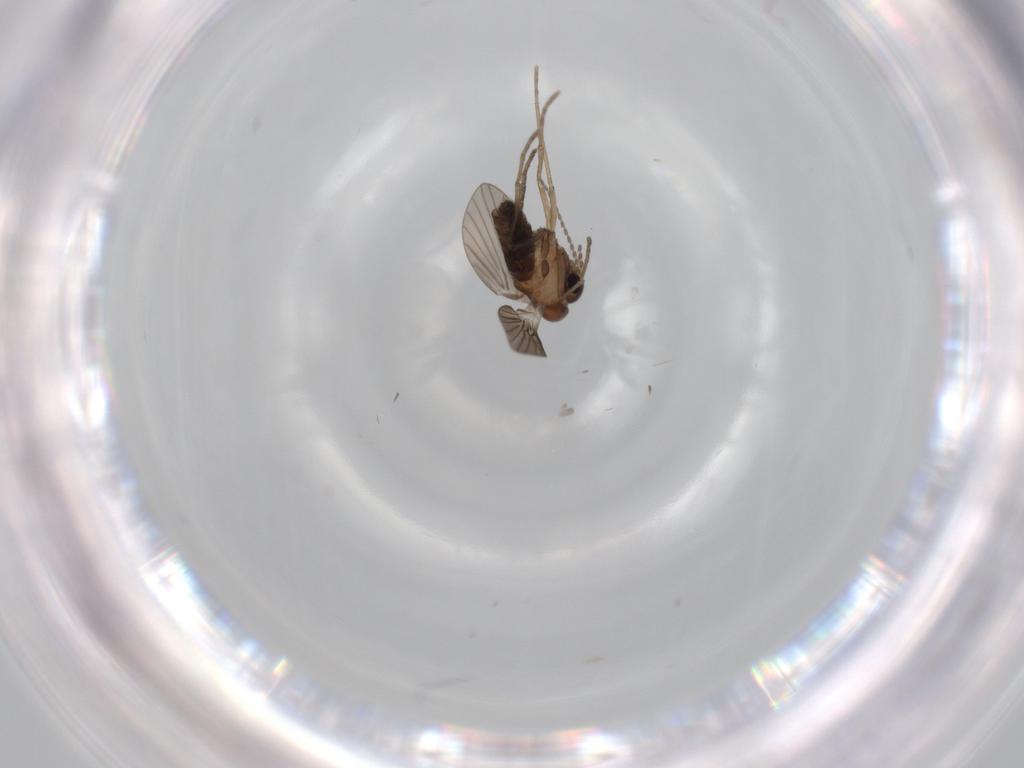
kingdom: Animalia
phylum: Arthropoda
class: Insecta
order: Diptera
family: Psychodidae
